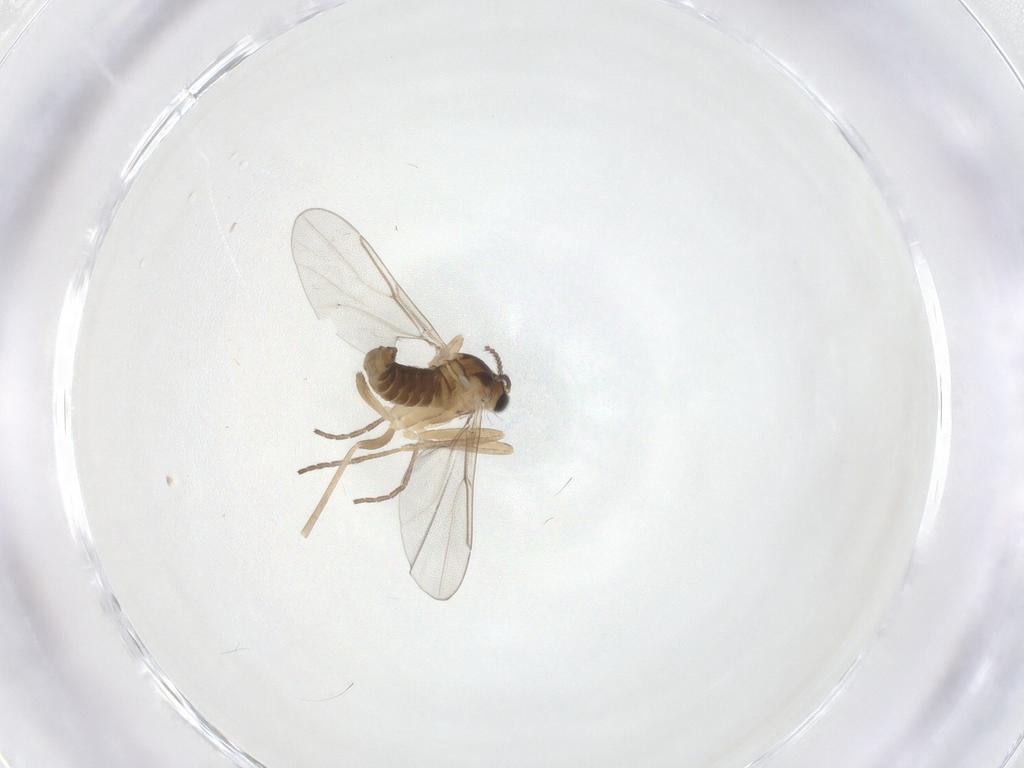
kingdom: Animalia
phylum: Arthropoda
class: Insecta
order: Diptera
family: Cecidomyiidae
